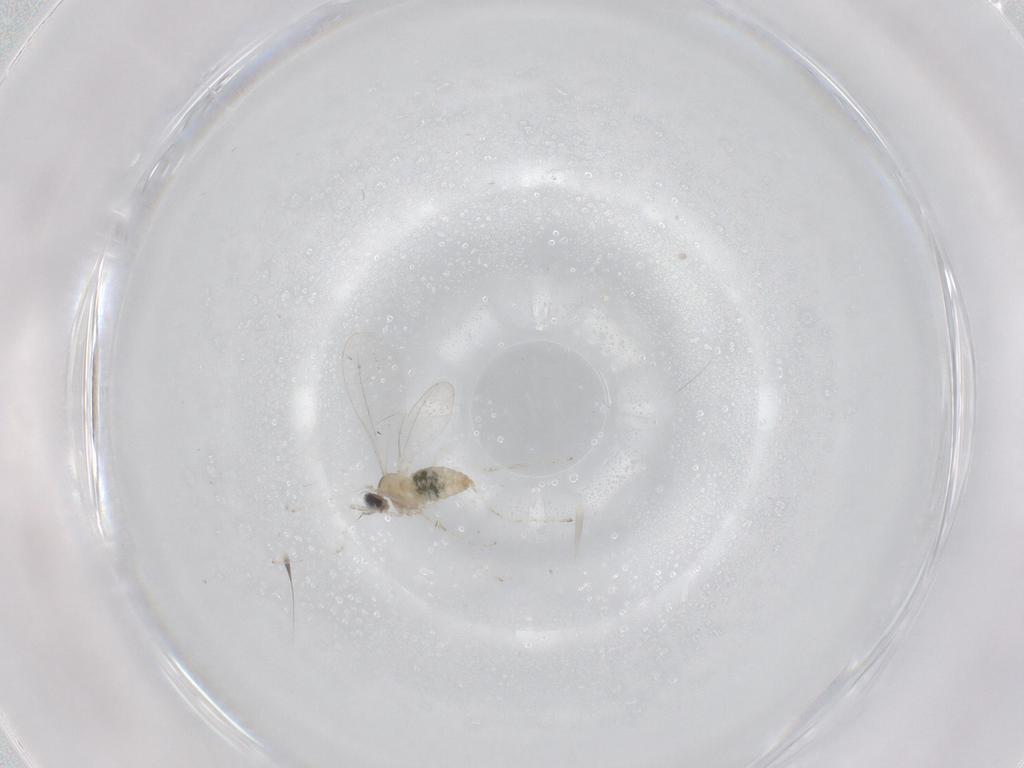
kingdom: Animalia
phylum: Arthropoda
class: Insecta
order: Diptera
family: Cecidomyiidae
